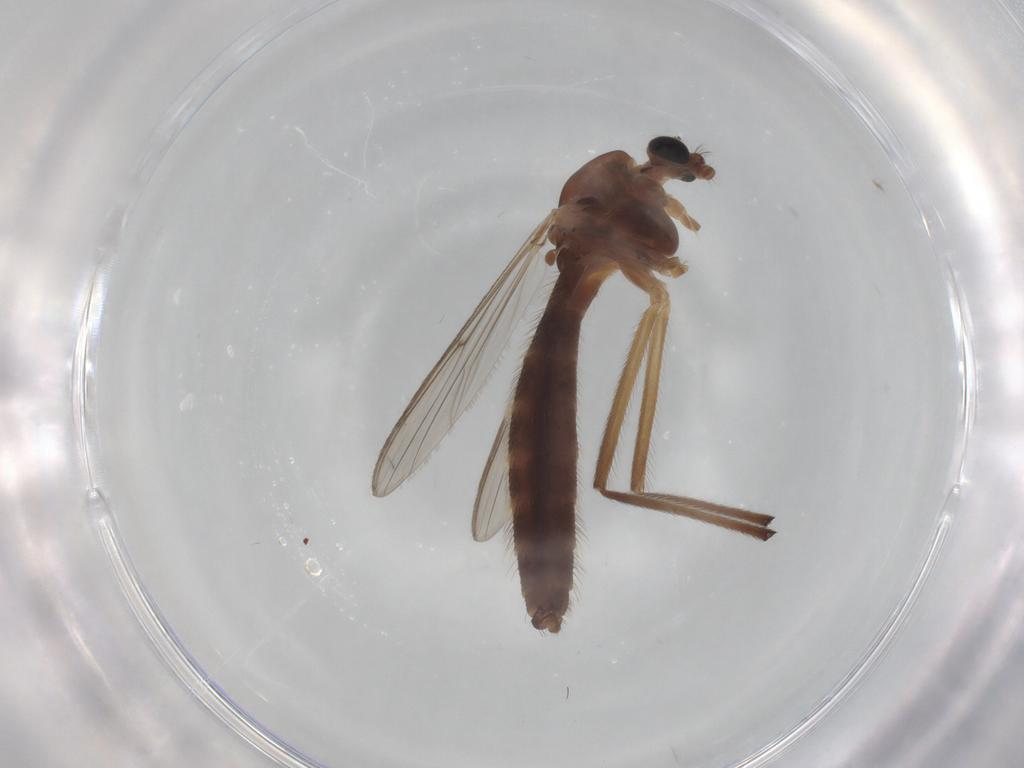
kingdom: Animalia
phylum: Arthropoda
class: Insecta
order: Diptera
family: Chironomidae
